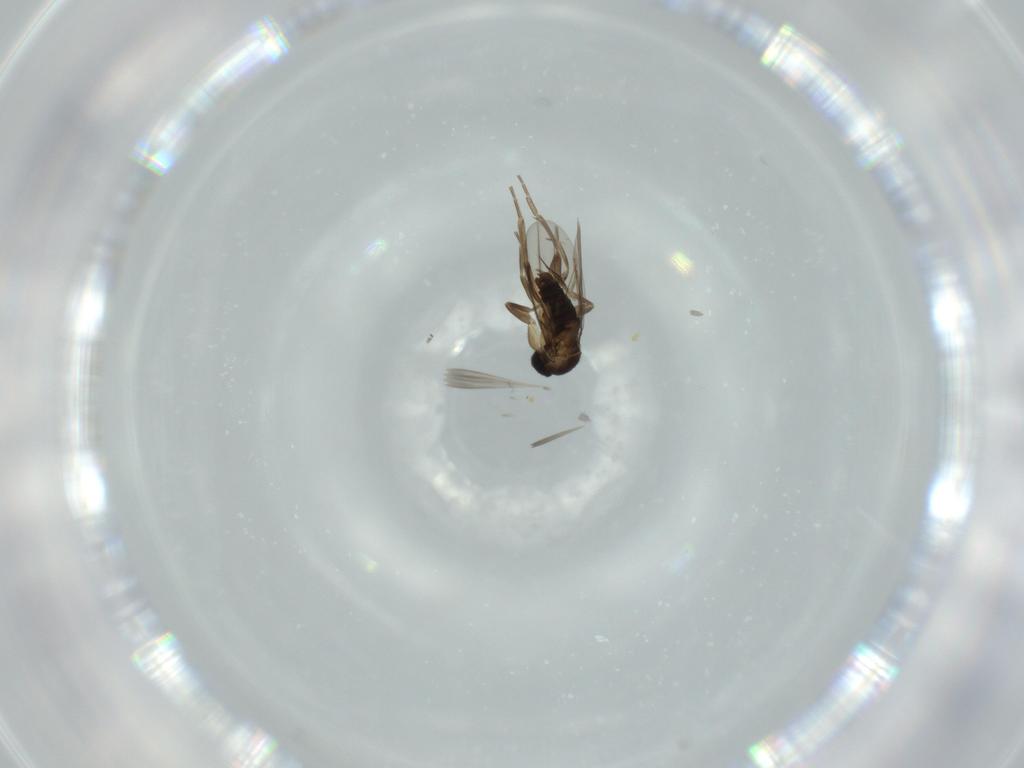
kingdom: Animalia
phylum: Arthropoda
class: Insecta
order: Diptera
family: Phoridae
